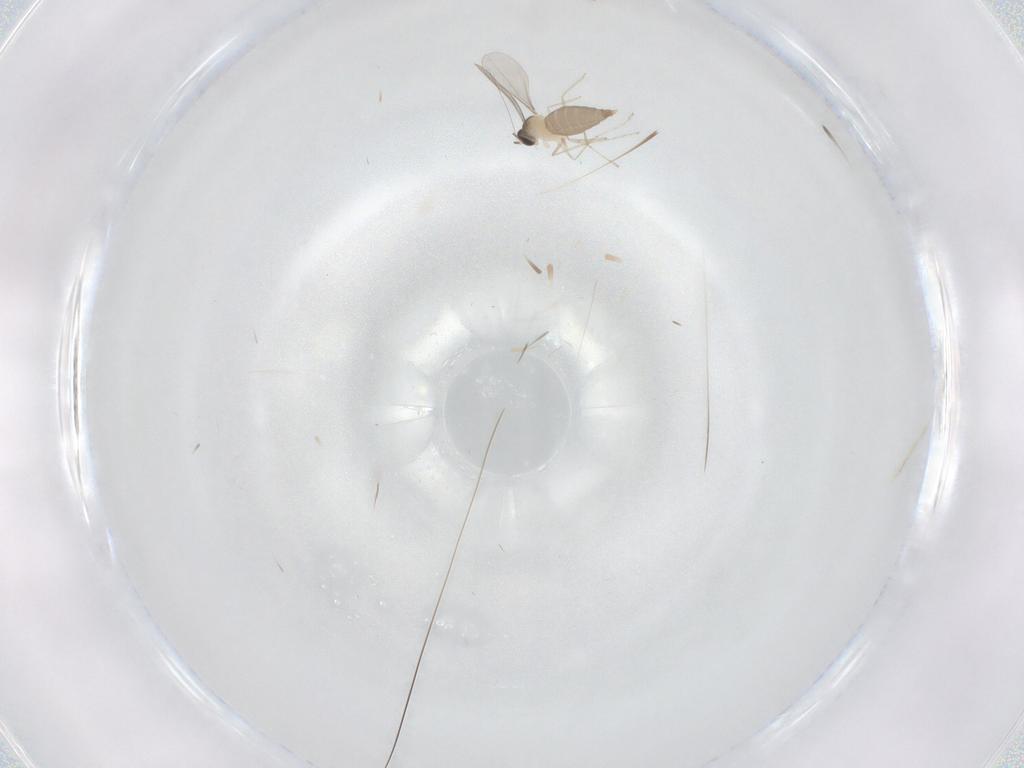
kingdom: Animalia
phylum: Arthropoda
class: Insecta
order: Diptera
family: Cecidomyiidae
